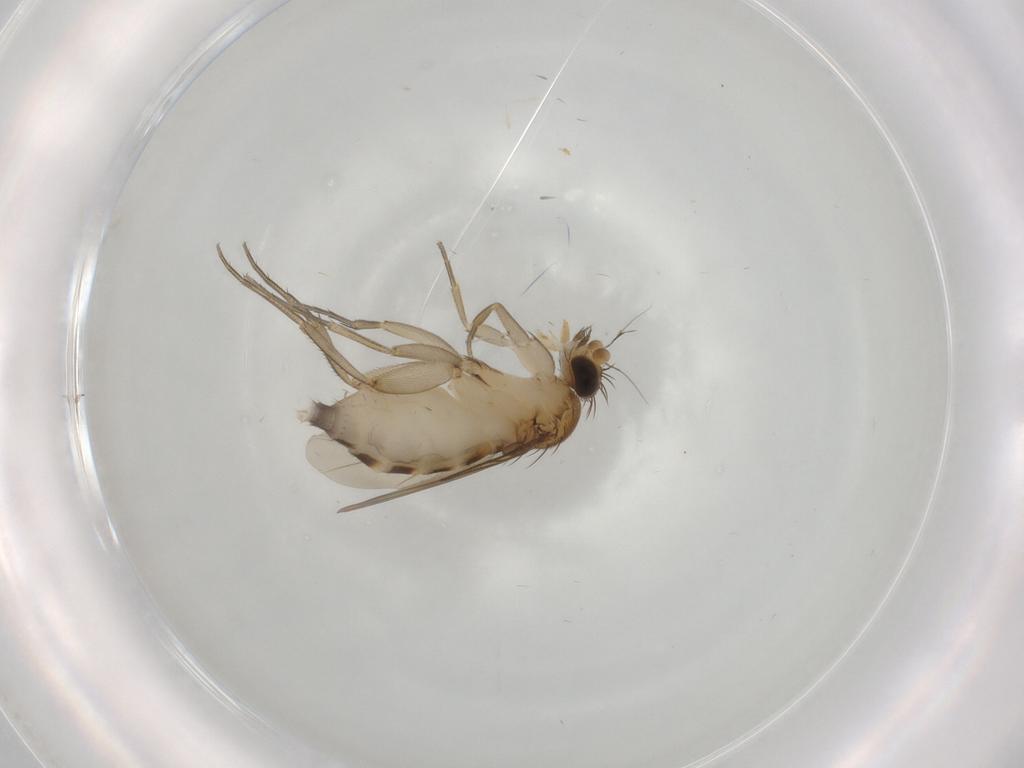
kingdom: Animalia
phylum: Arthropoda
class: Insecta
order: Diptera
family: Phoridae
